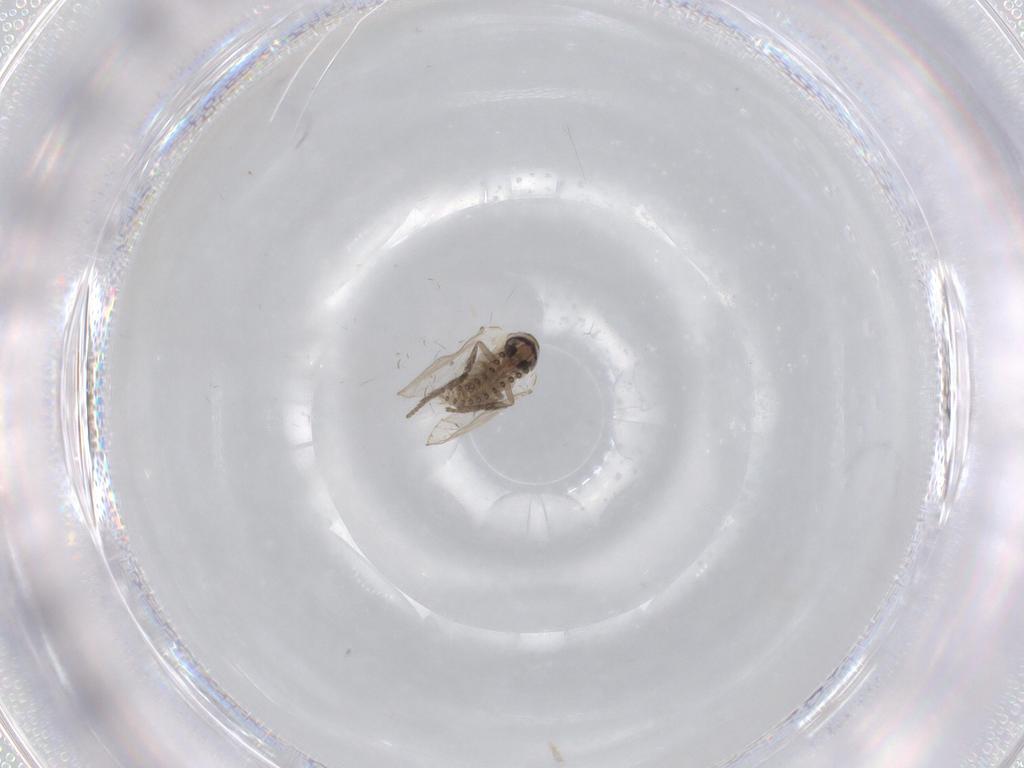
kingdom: Animalia
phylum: Arthropoda
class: Insecta
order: Diptera
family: Psychodidae
